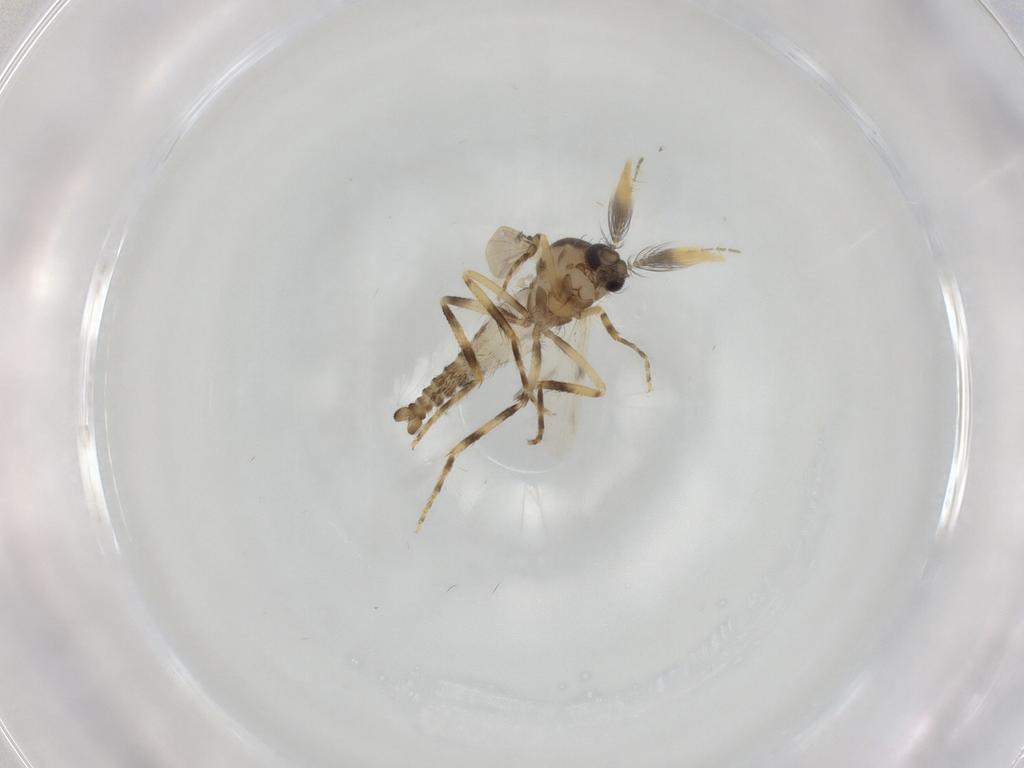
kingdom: Animalia
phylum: Arthropoda
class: Insecta
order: Diptera
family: Ceratopogonidae
